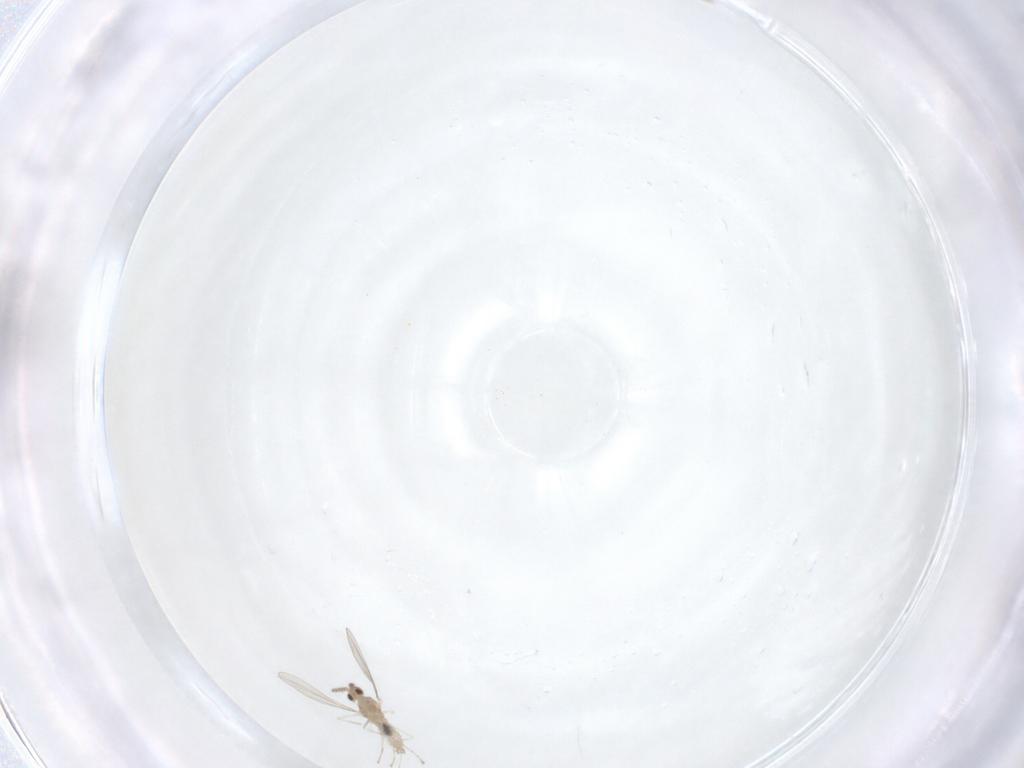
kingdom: Animalia
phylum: Arthropoda
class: Insecta
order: Diptera
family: Cecidomyiidae
